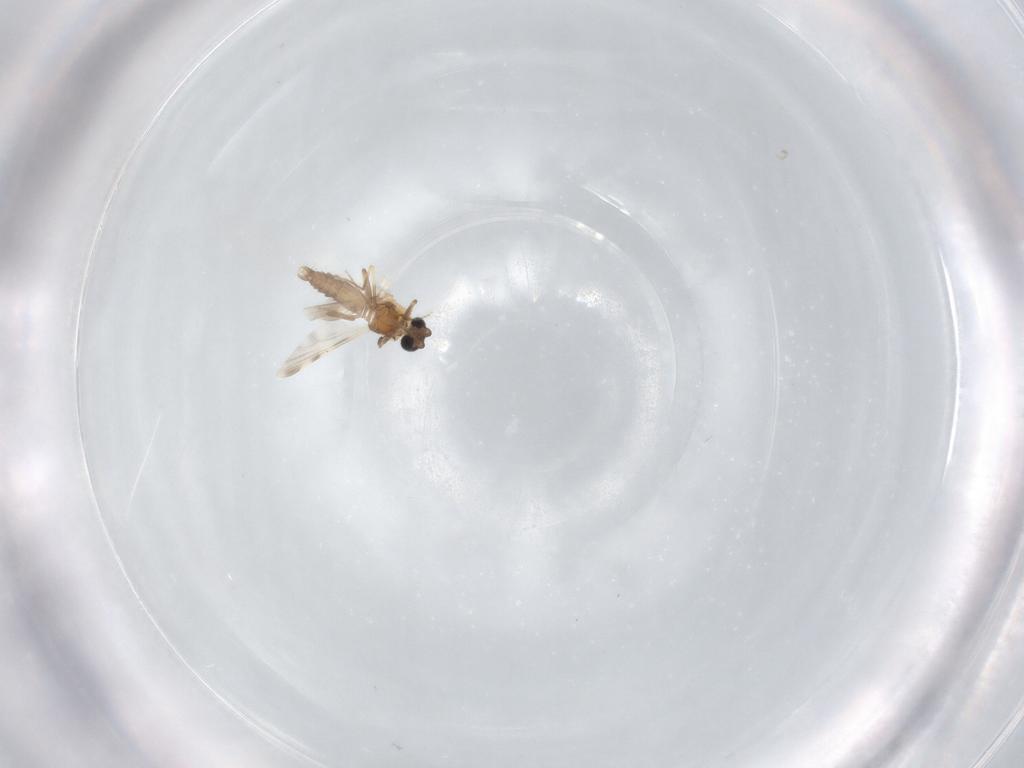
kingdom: Animalia
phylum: Arthropoda
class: Insecta
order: Diptera
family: Ceratopogonidae
